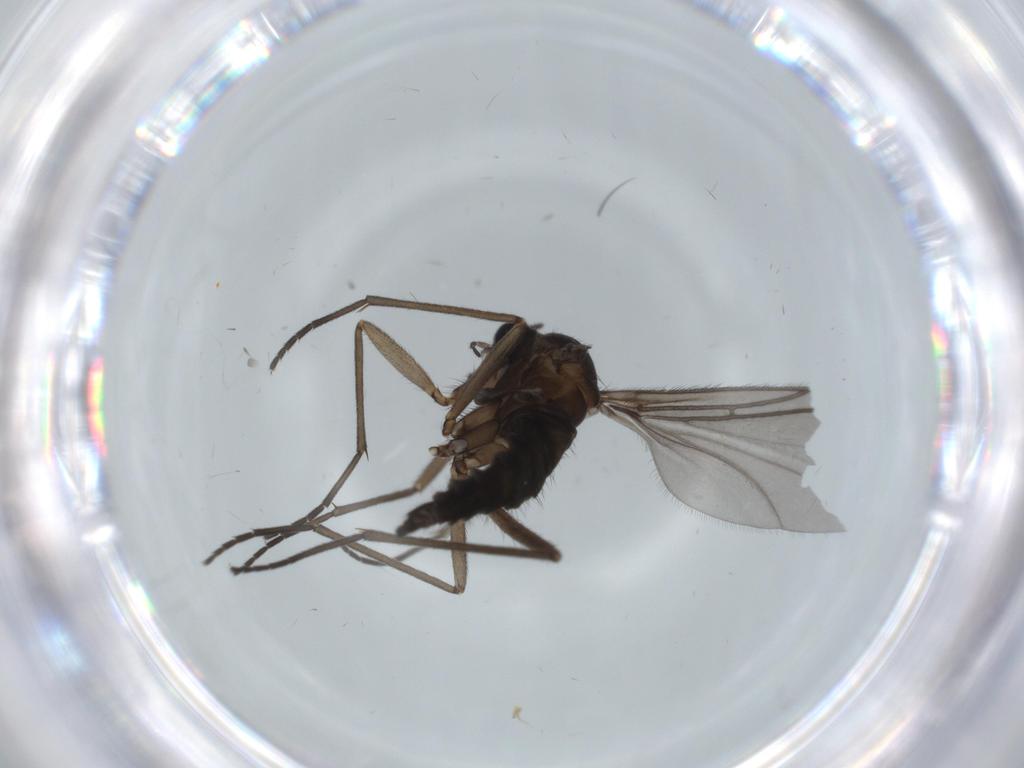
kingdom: Animalia
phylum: Arthropoda
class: Insecta
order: Diptera
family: Sciaridae
